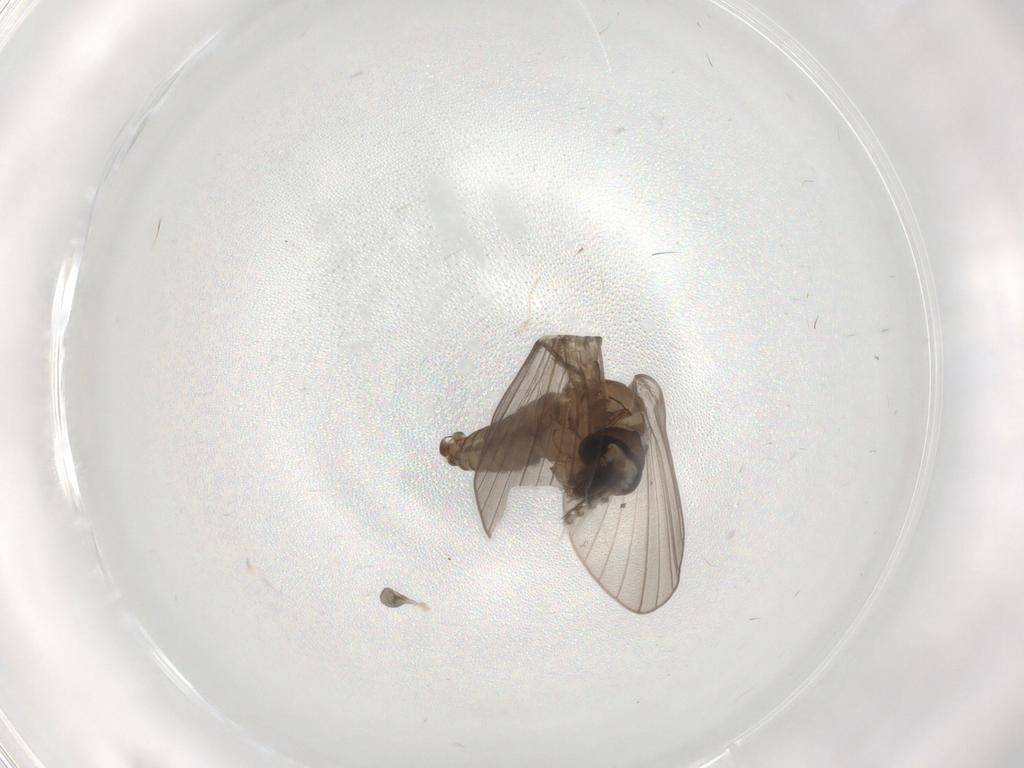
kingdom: Animalia
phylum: Arthropoda
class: Insecta
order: Diptera
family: Psychodidae
